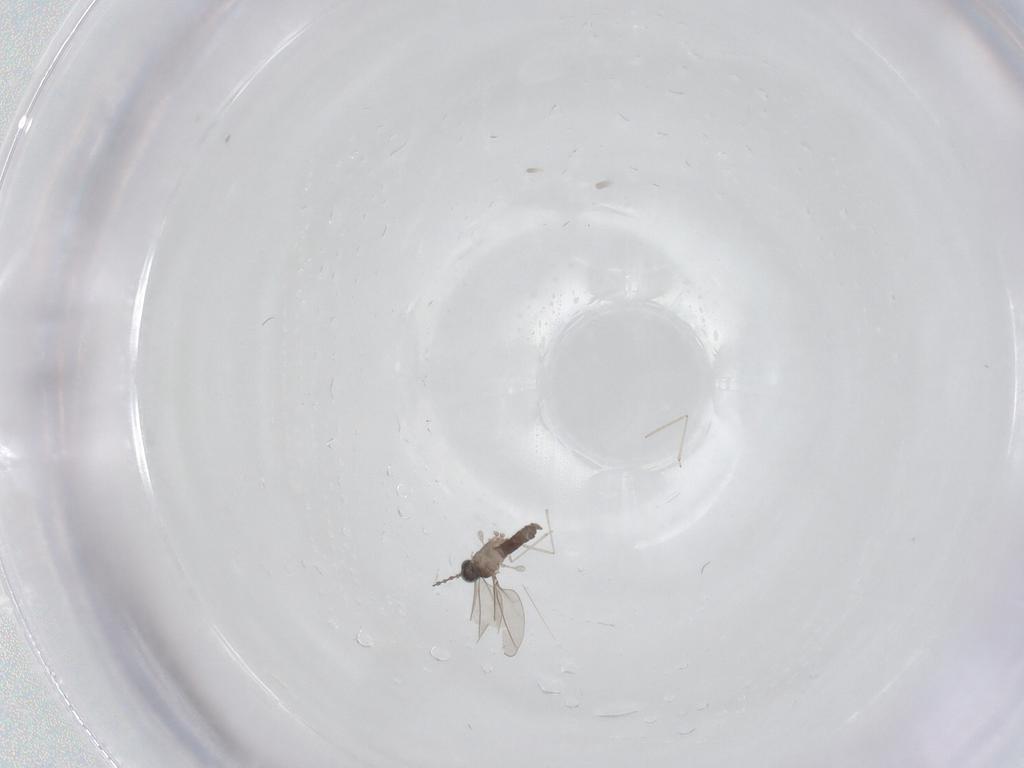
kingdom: Animalia
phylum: Arthropoda
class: Insecta
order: Diptera
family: Cecidomyiidae
